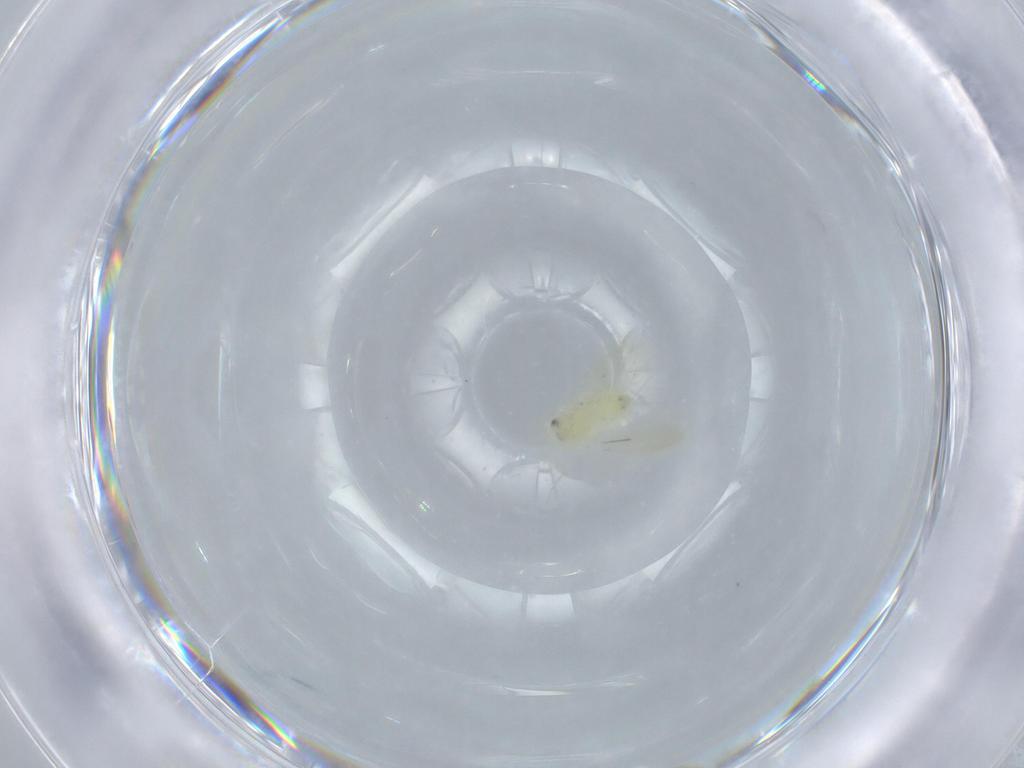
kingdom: Animalia
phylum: Arthropoda
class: Insecta
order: Hemiptera
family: Aleyrodidae
